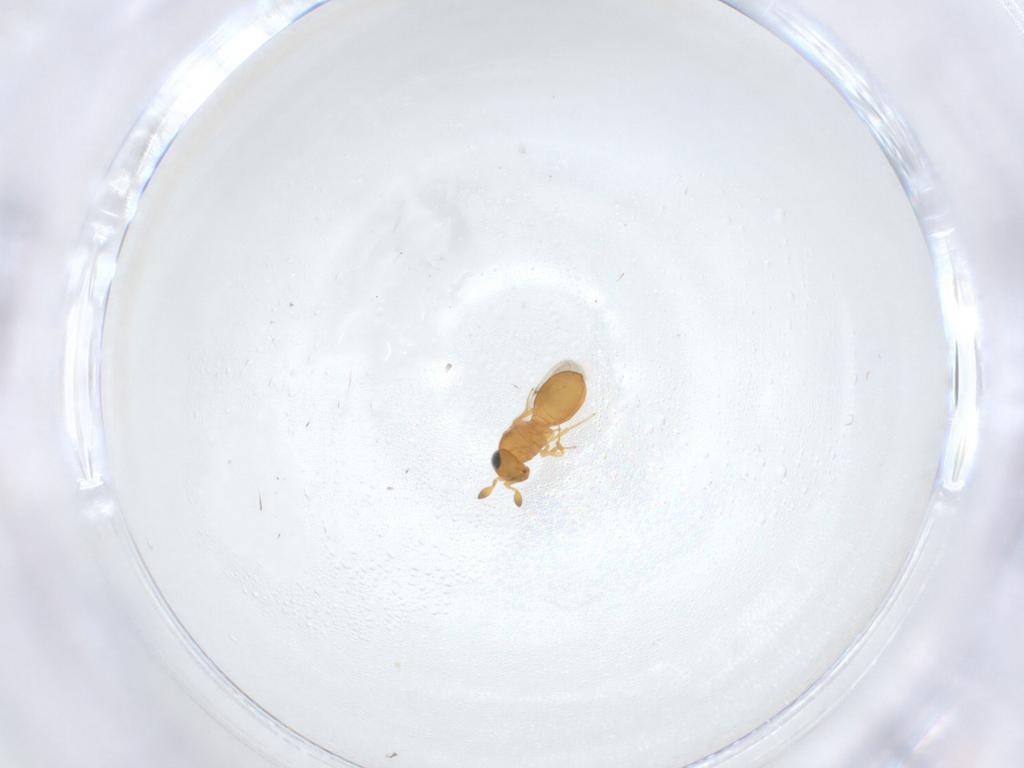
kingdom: Animalia
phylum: Arthropoda
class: Insecta
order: Hymenoptera
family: Scelionidae
